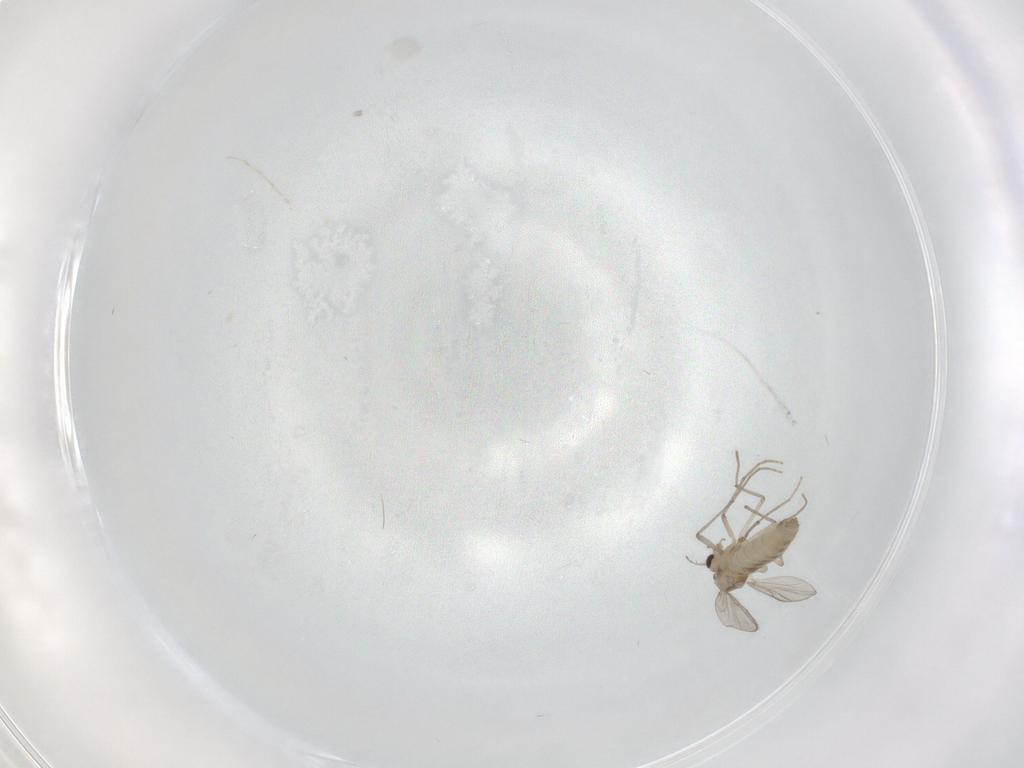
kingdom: Animalia
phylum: Arthropoda
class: Insecta
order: Diptera
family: Chironomidae
